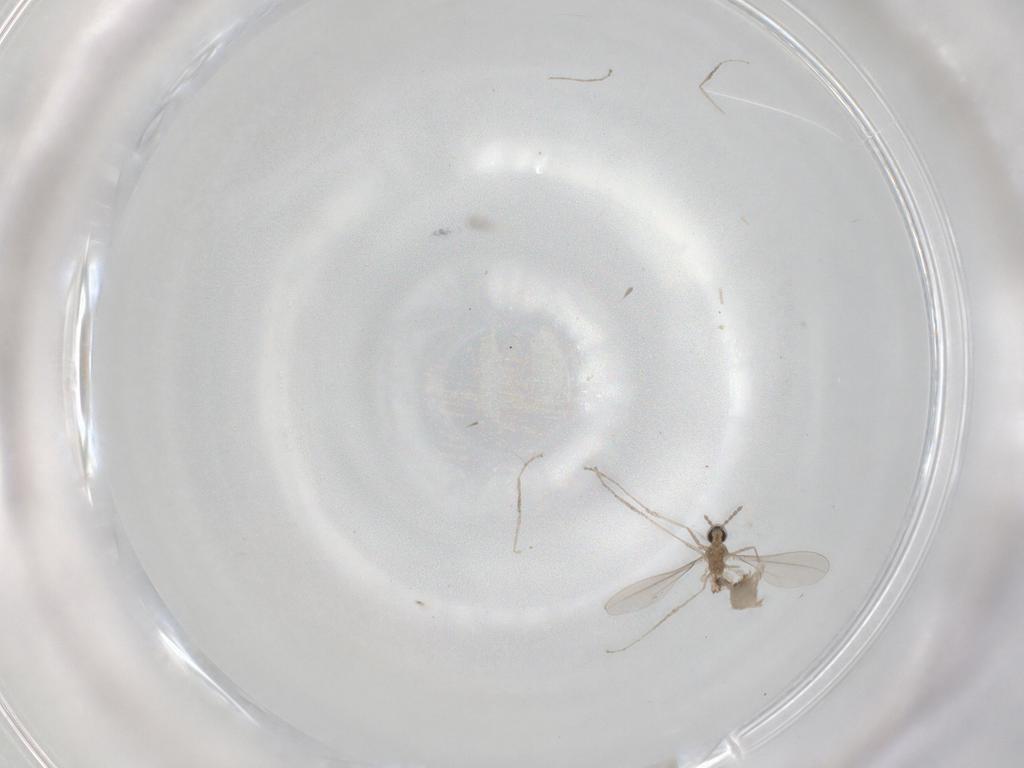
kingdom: Animalia
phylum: Arthropoda
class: Insecta
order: Diptera
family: Cecidomyiidae
